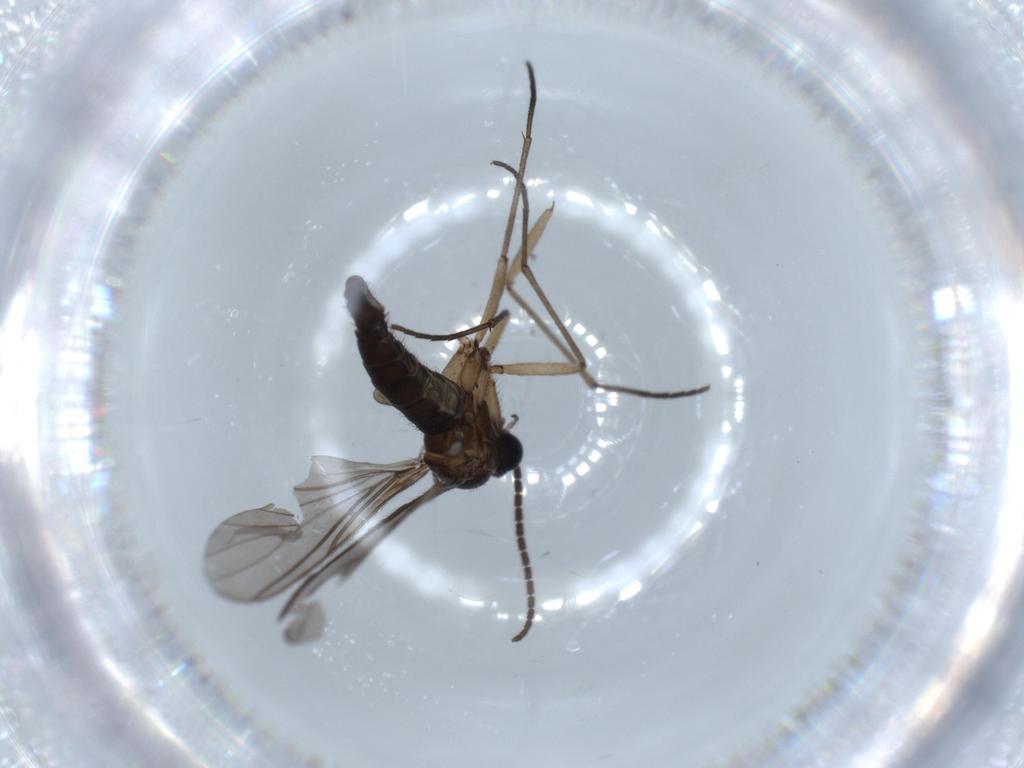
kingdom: Animalia
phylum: Arthropoda
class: Insecta
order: Diptera
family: Sciaridae
